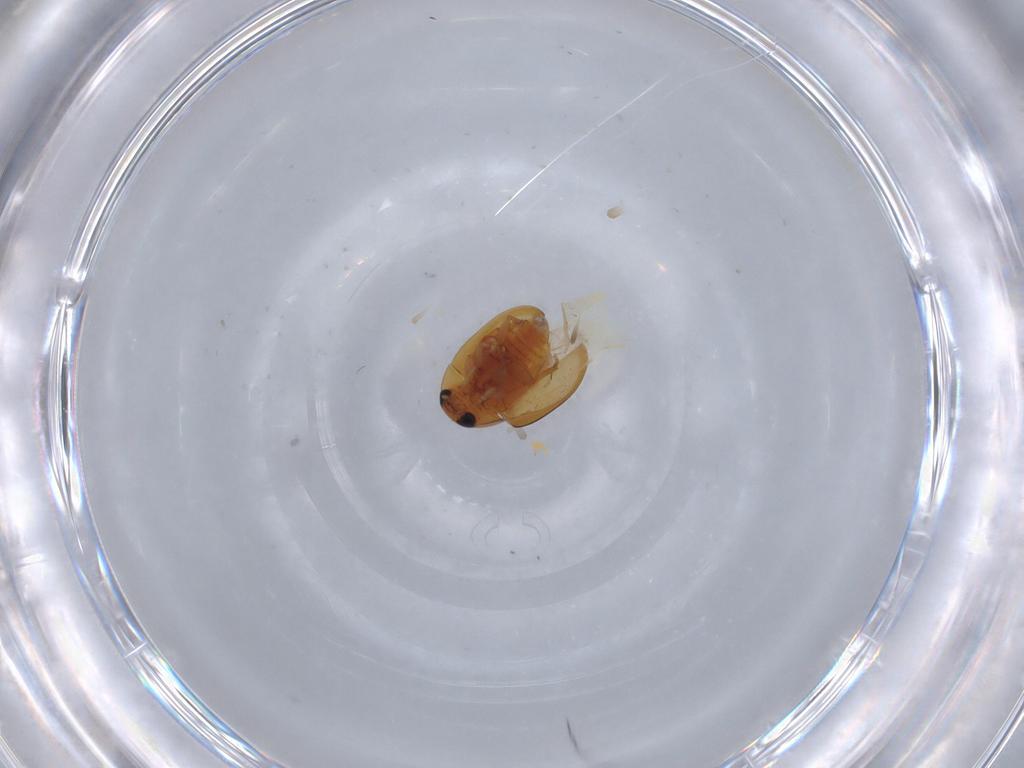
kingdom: Animalia
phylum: Arthropoda
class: Insecta
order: Coleoptera
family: Phalacridae
